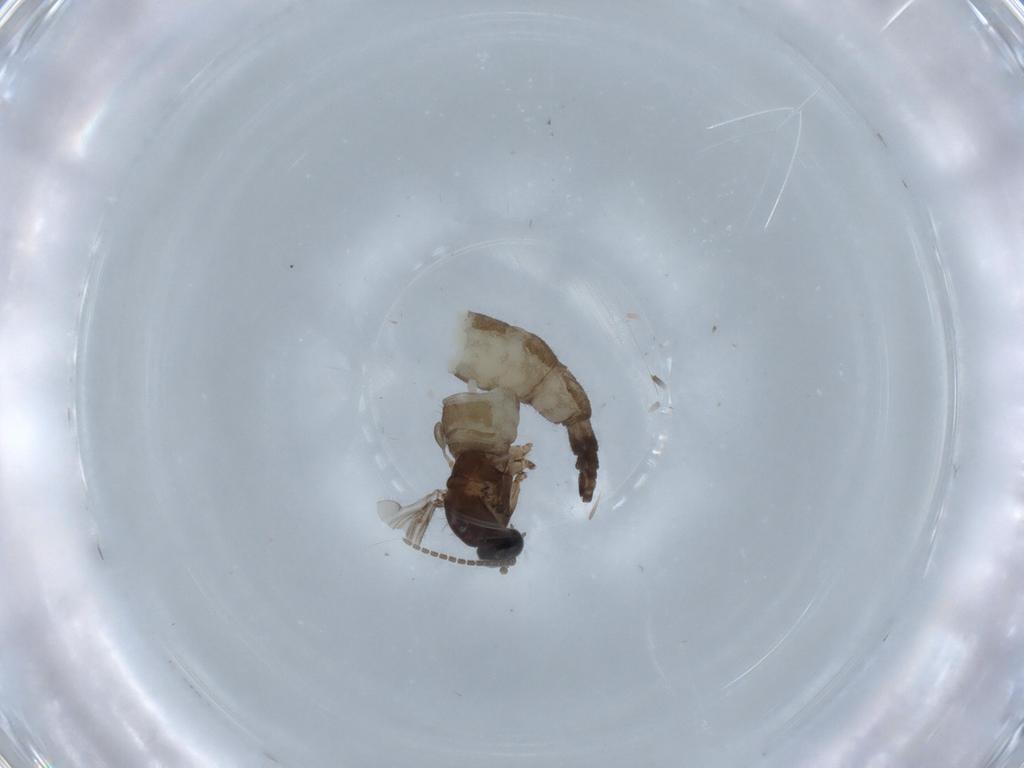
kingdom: Animalia
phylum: Arthropoda
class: Insecta
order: Diptera
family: Sciaridae
